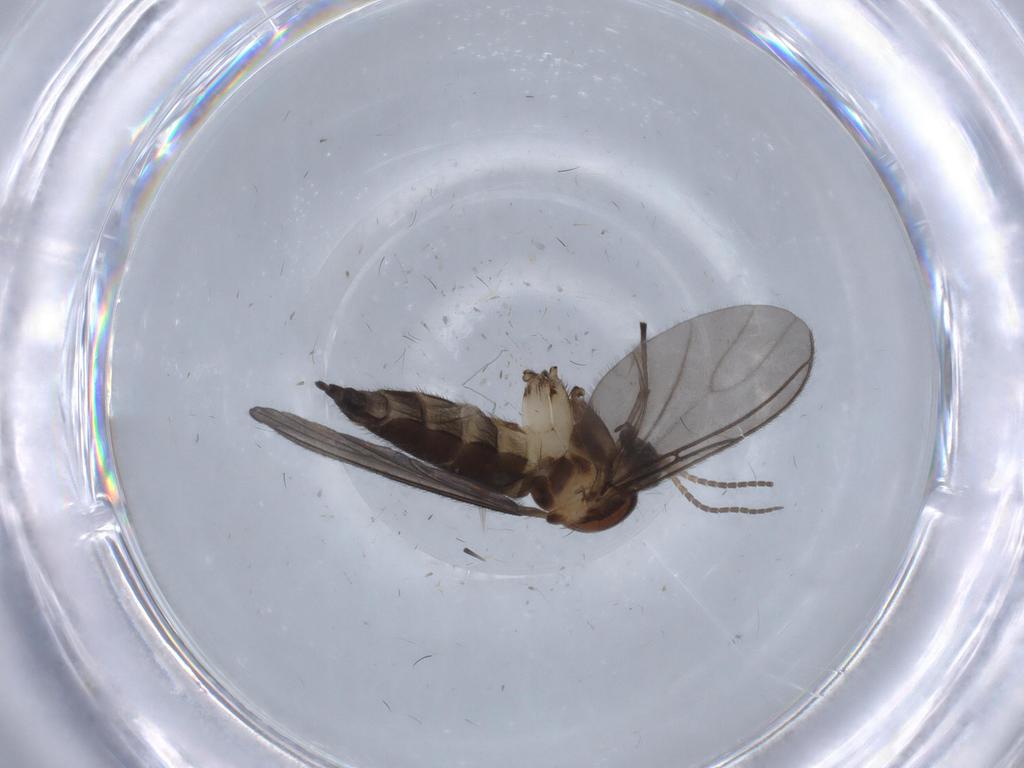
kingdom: Animalia
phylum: Arthropoda
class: Insecta
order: Diptera
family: Sciaridae
